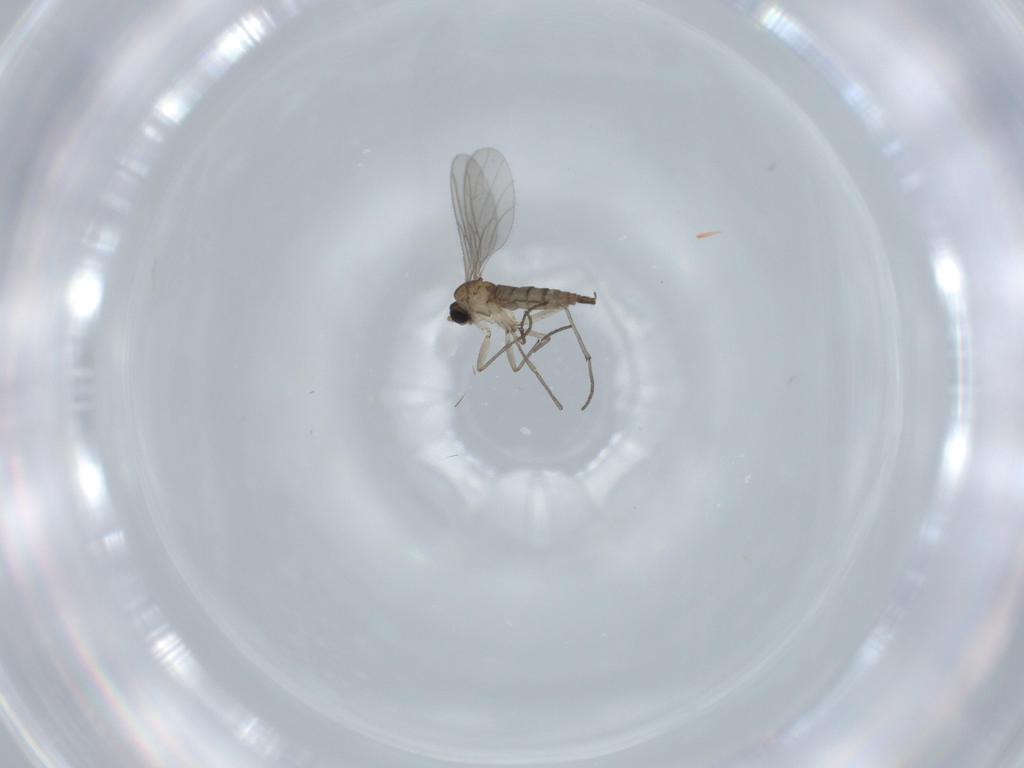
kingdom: Animalia
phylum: Arthropoda
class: Insecta
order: Diptera
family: Sciaridae
